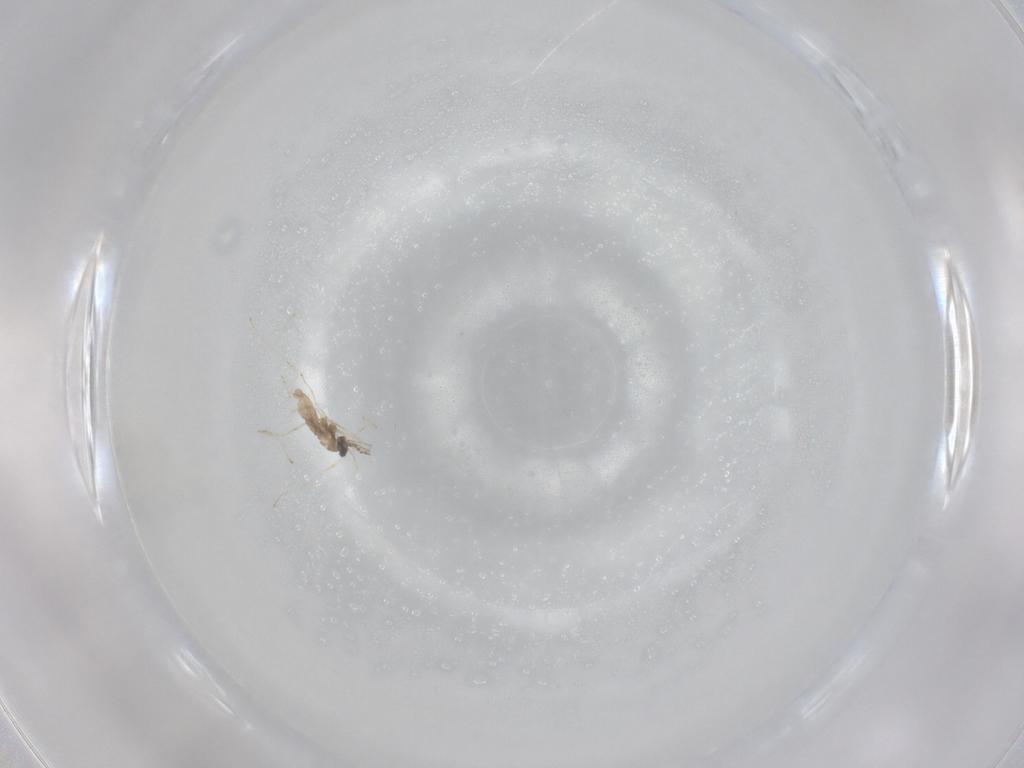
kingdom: Animalia
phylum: Arthropoda
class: Insecta
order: Diptera
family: Cecidomyiidae
